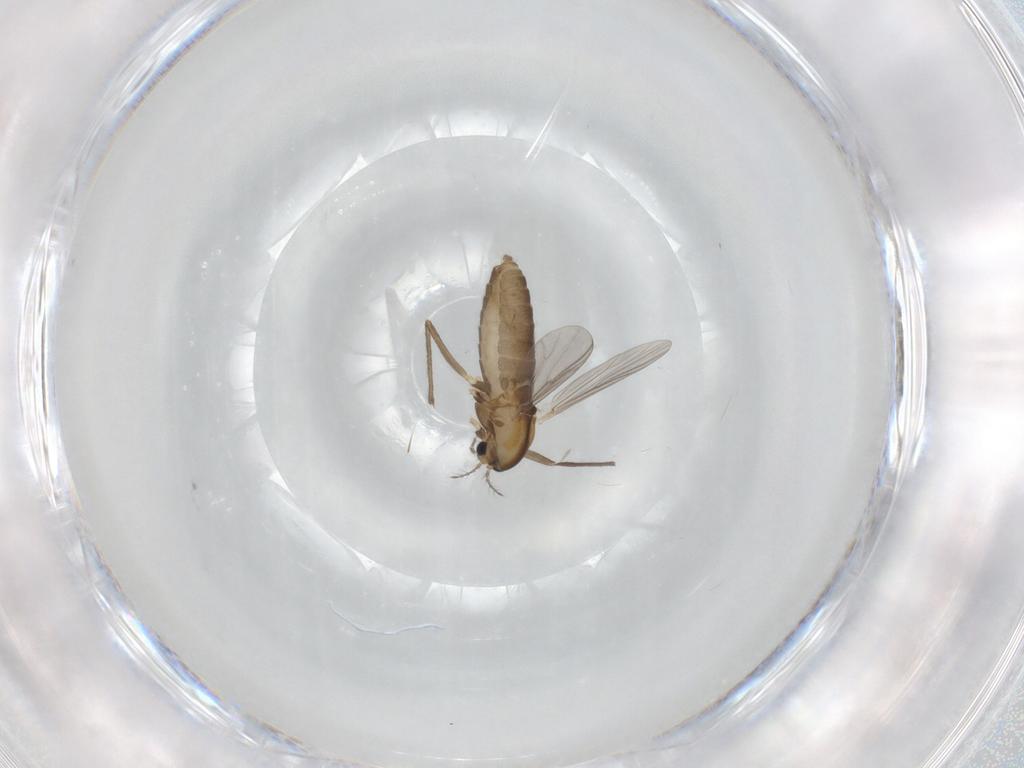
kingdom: Animalia
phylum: Arthropoda
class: Insecta
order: Diptera
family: Chironomidae
